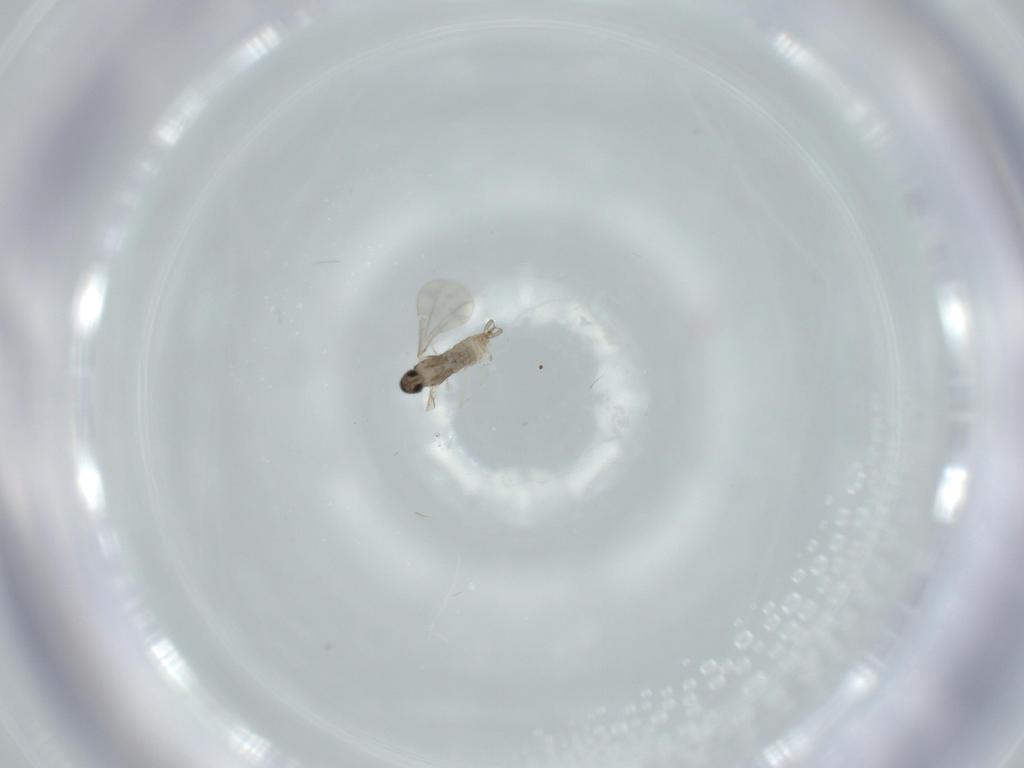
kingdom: Animalia
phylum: Arthropoda
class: Insecta
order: Diptera
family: Cecidomyiidae
